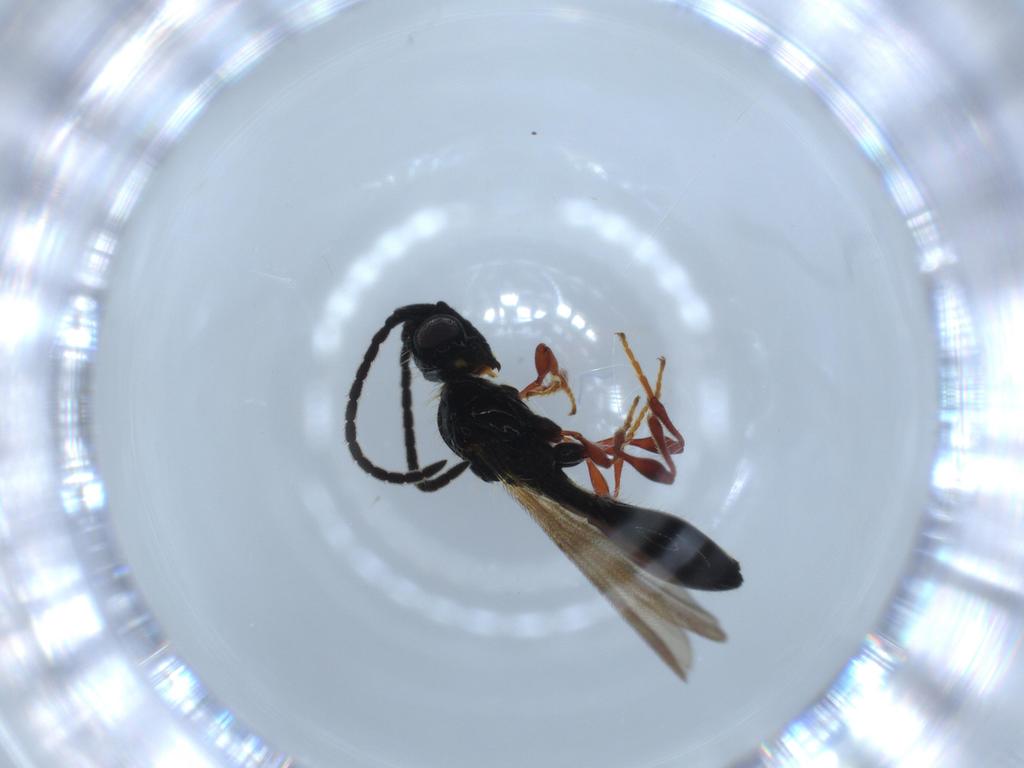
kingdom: Animalia
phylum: Arthropoda
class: Insecta
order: Hymenoptera
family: Diapriidae
